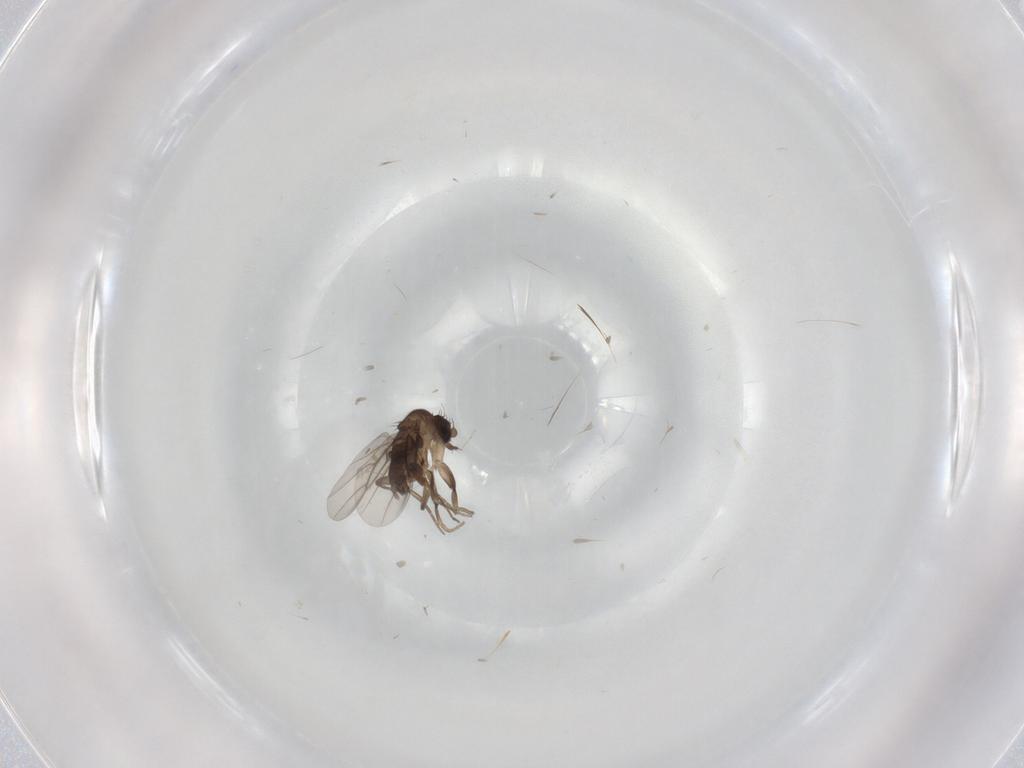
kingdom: Animalia
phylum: Arthropoda
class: Insecta
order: Diptera
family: Phoridae
